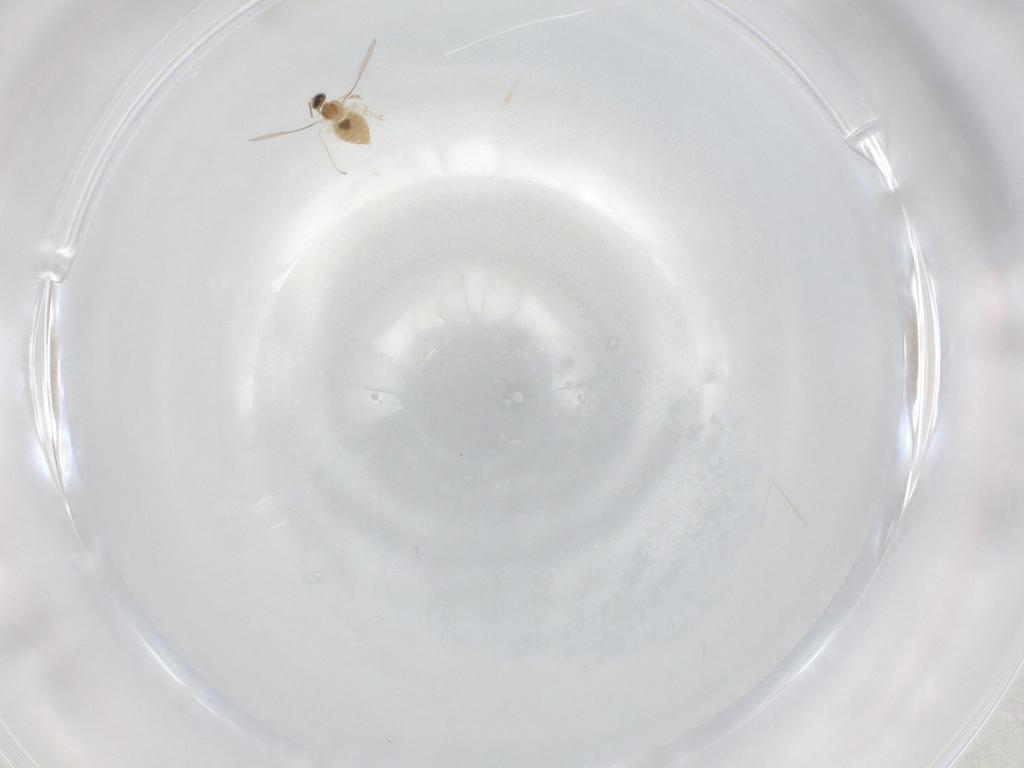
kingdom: Animalia
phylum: Arthropoda
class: Insecta
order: Diptera
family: Cecidomyiidae
